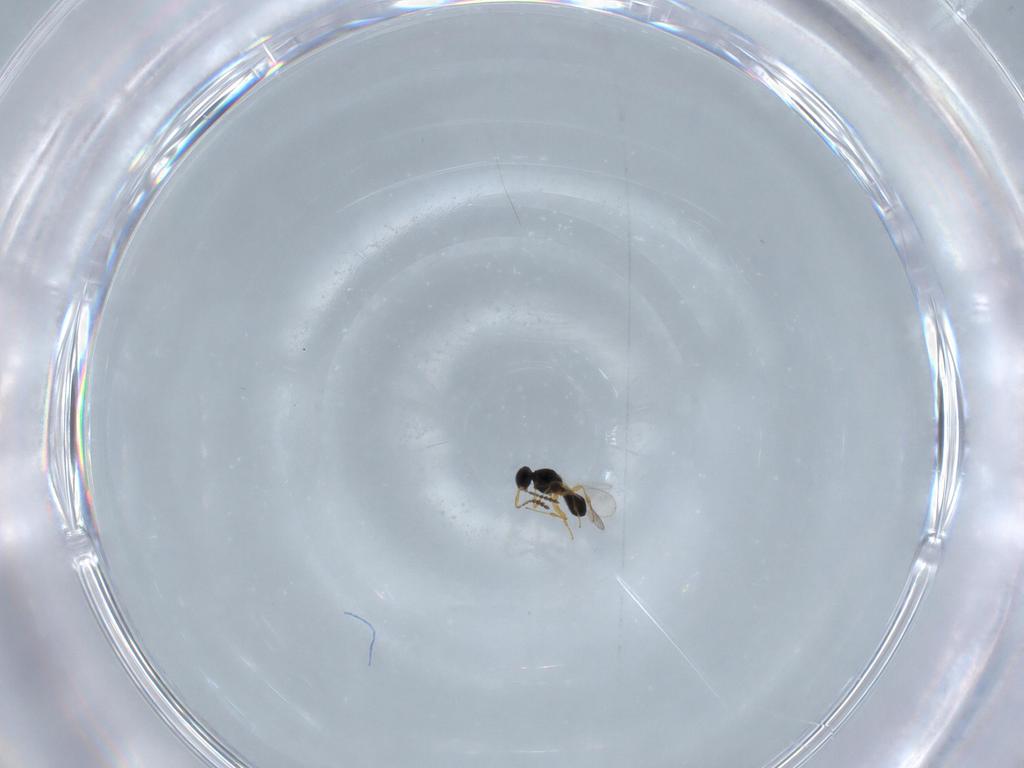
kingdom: Animalia
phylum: Arthropoda
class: Insecta
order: Hymenoptera
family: Platygastridae
